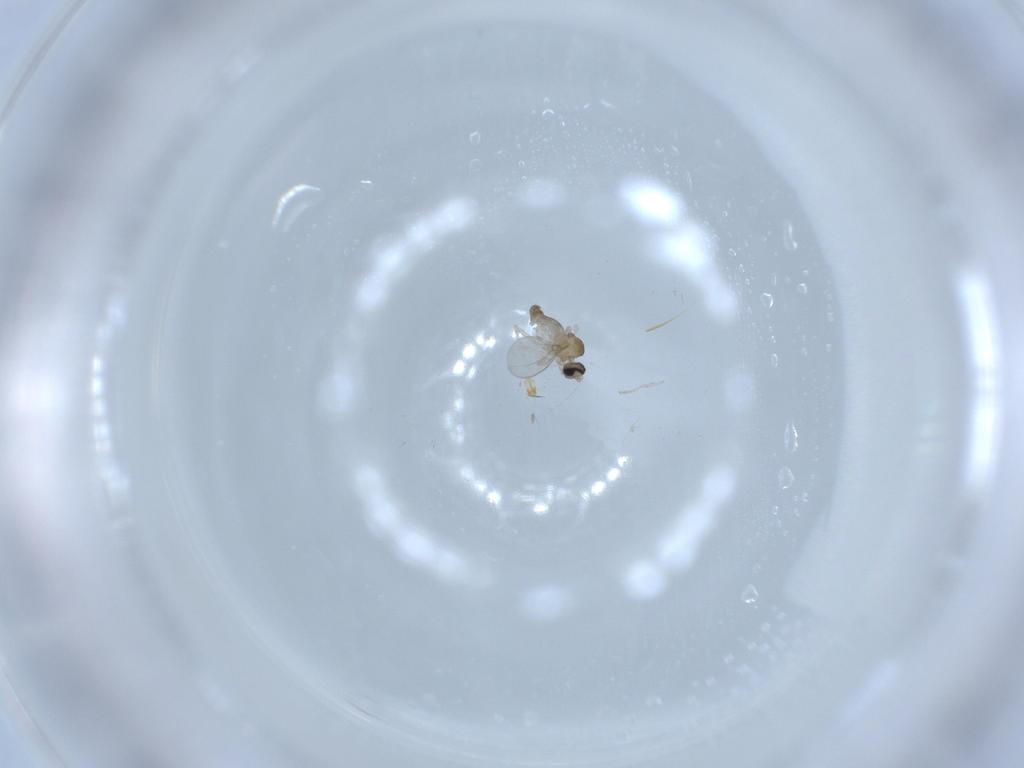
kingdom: Animalia
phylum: Arthropoda
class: Insecta
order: Diptera
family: Cecidomyiidae
